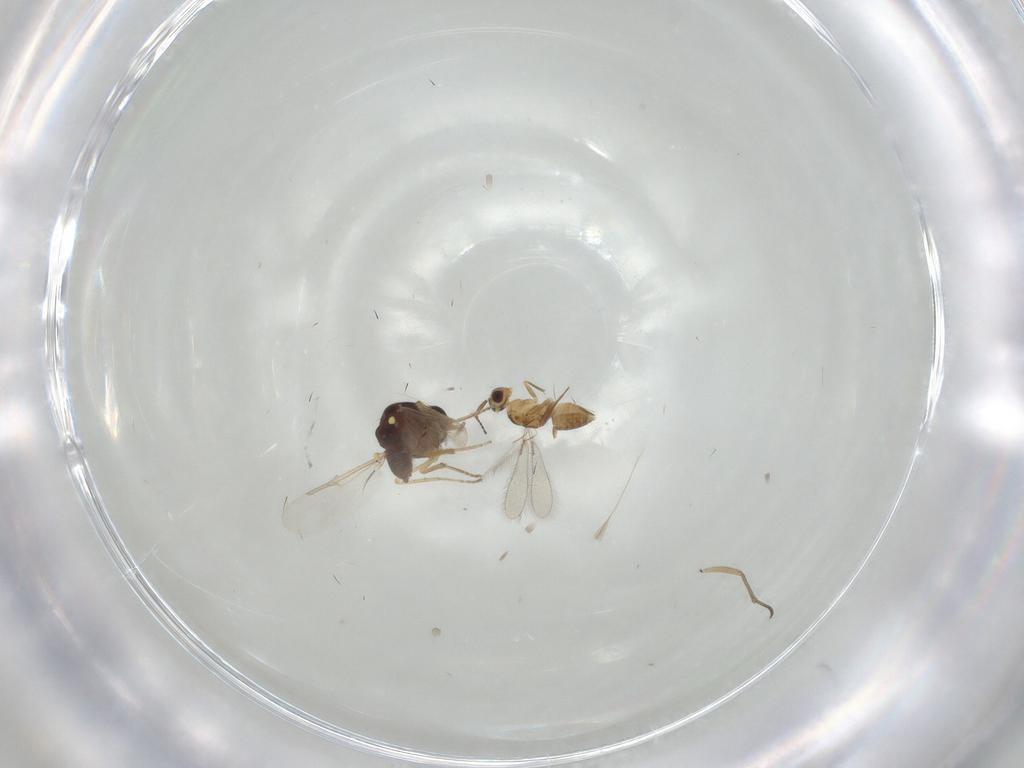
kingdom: Animalia
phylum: Arthropoda
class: Insecta
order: Diptera
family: Ceratopogonidae
